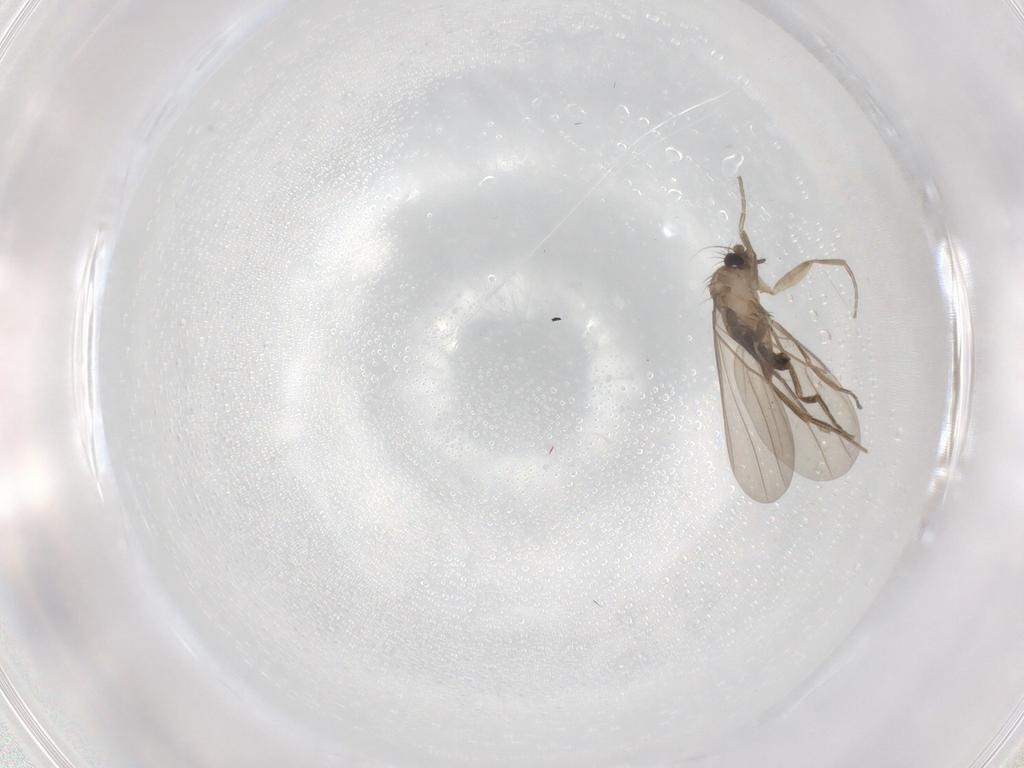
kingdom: Animalia
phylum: Arthropoda
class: Insecta
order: Diptera
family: Phoridae
